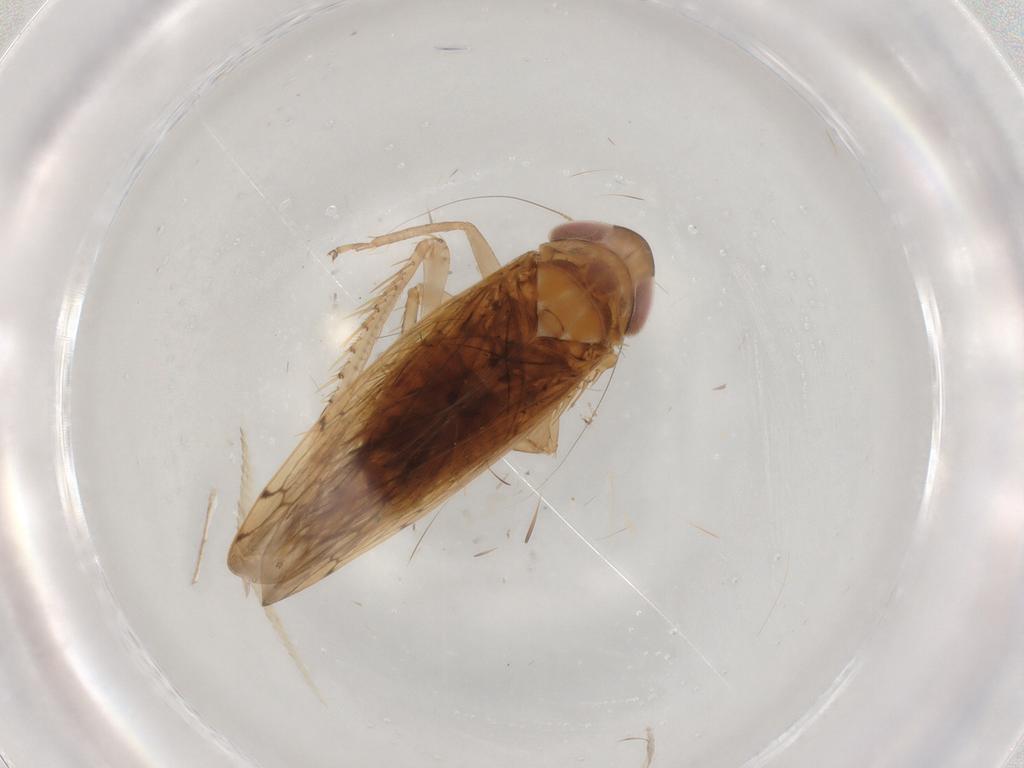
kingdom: Animalia
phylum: Arthropoda
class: Insecta
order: Hemiptera
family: Cicadellidae
